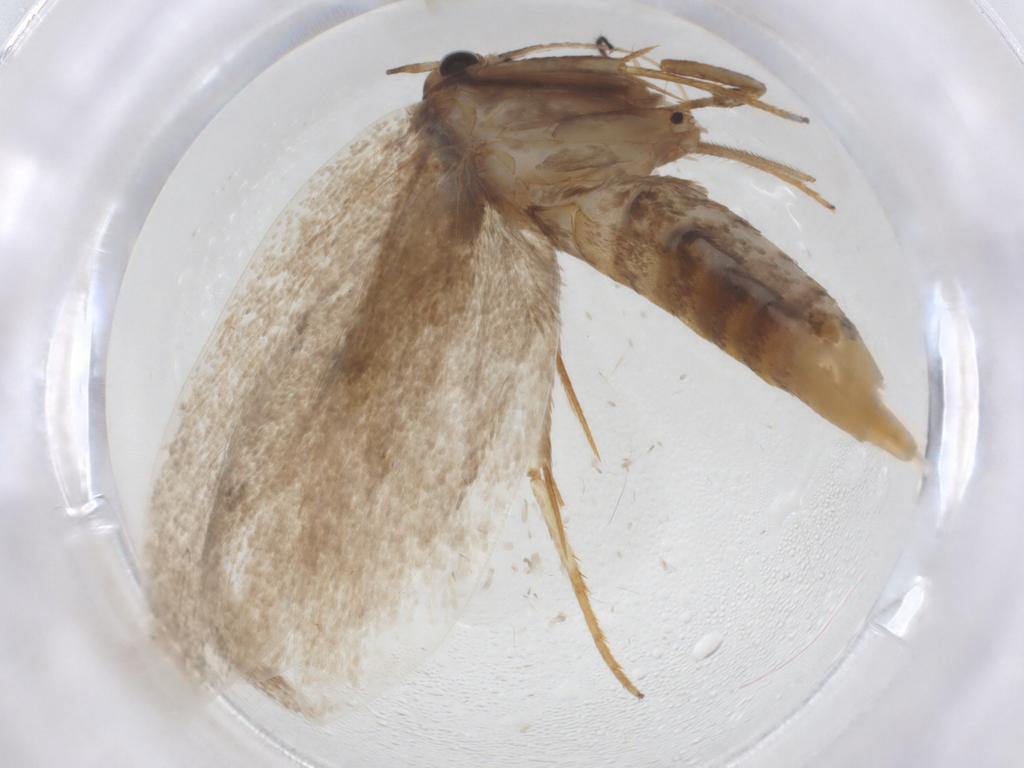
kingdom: Animalia
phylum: Arthropoda
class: Insecta
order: Lepidoptera
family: Oecophoridae
